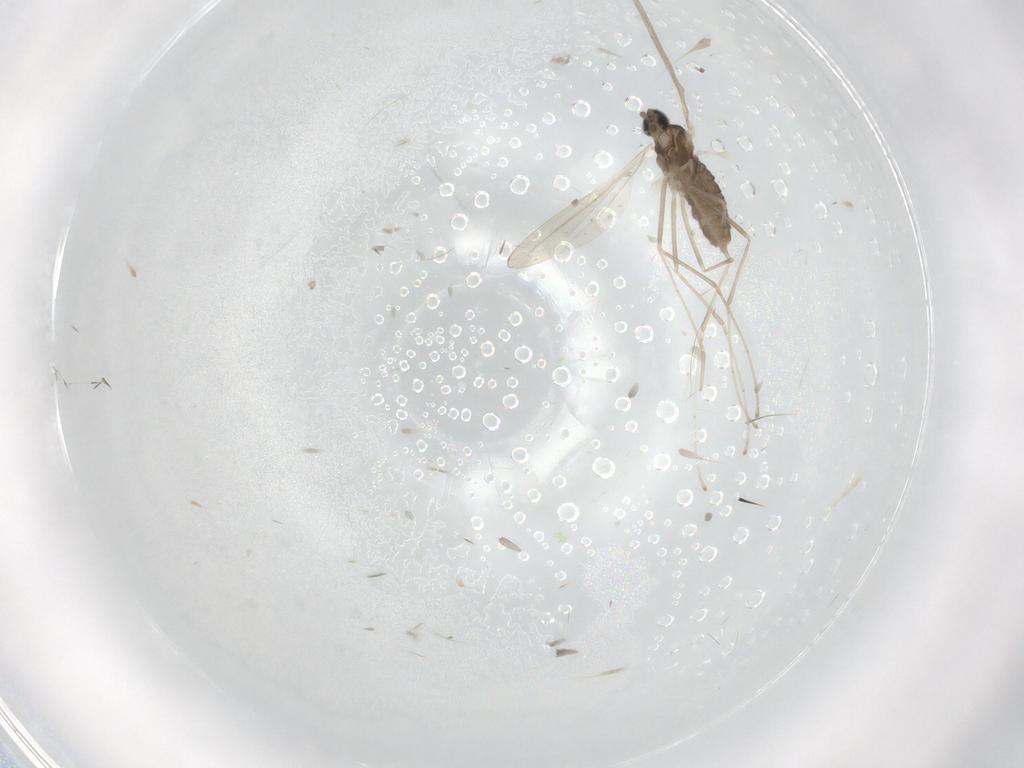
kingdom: Animalia
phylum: Arthropoda
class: Insecta
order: Diptera
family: Cecidomyiidae
